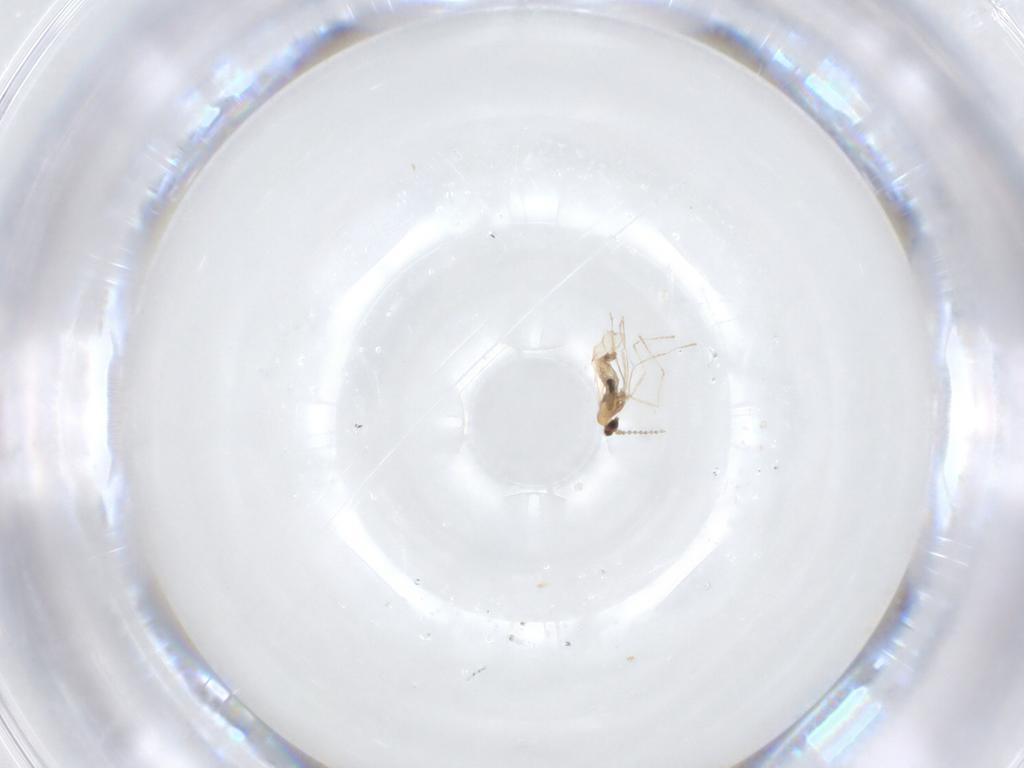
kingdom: Animalia
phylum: Arthropoda
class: Insecta
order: Diptera
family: Cecidomyiidae
